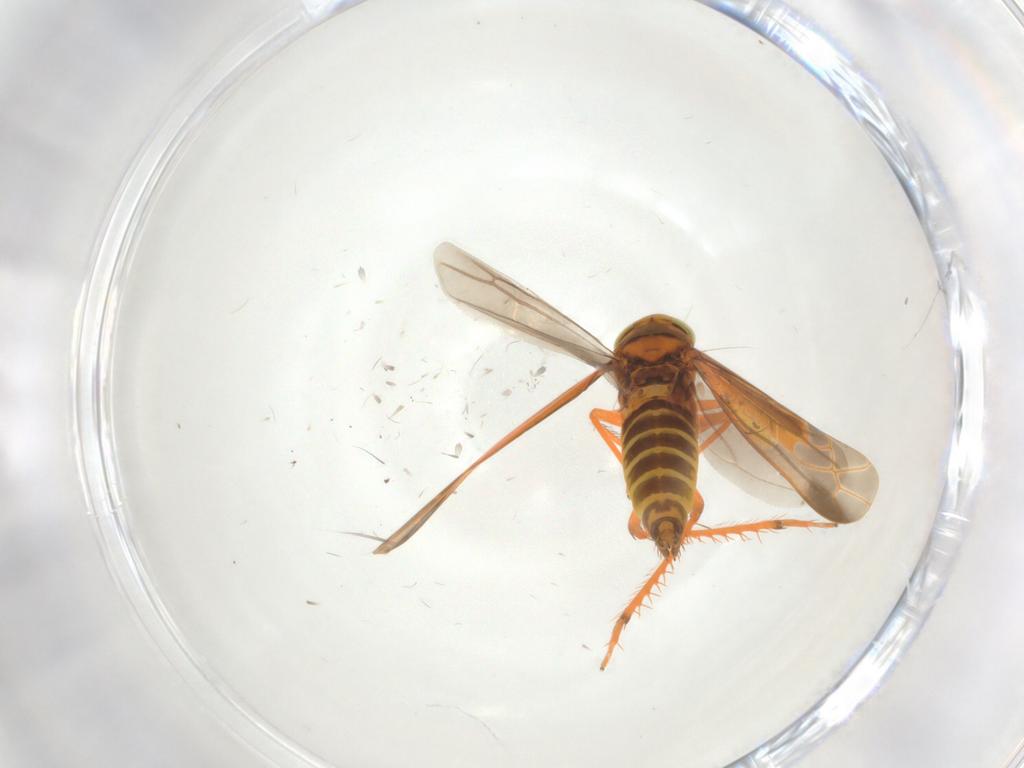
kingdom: Animalia
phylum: Arthropoda
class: Insecta
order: Hemiptera
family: Cicadellidae
